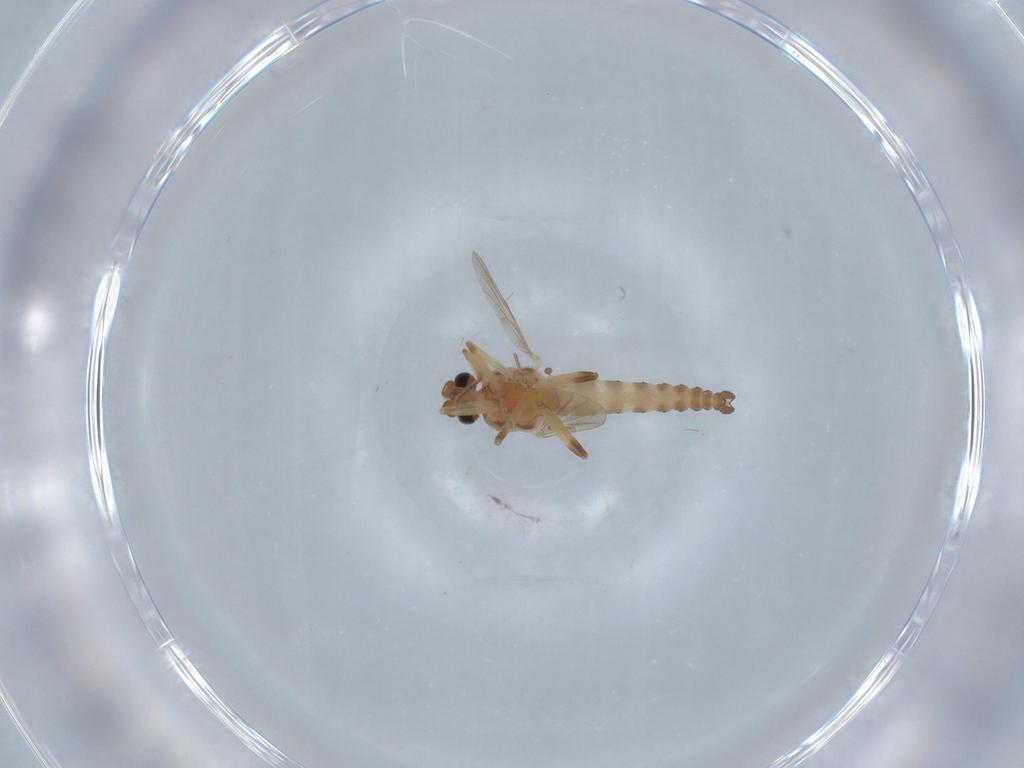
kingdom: Animalia
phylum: Arthropoda
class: Insecta
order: Diptera
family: Ceratopogonidae
